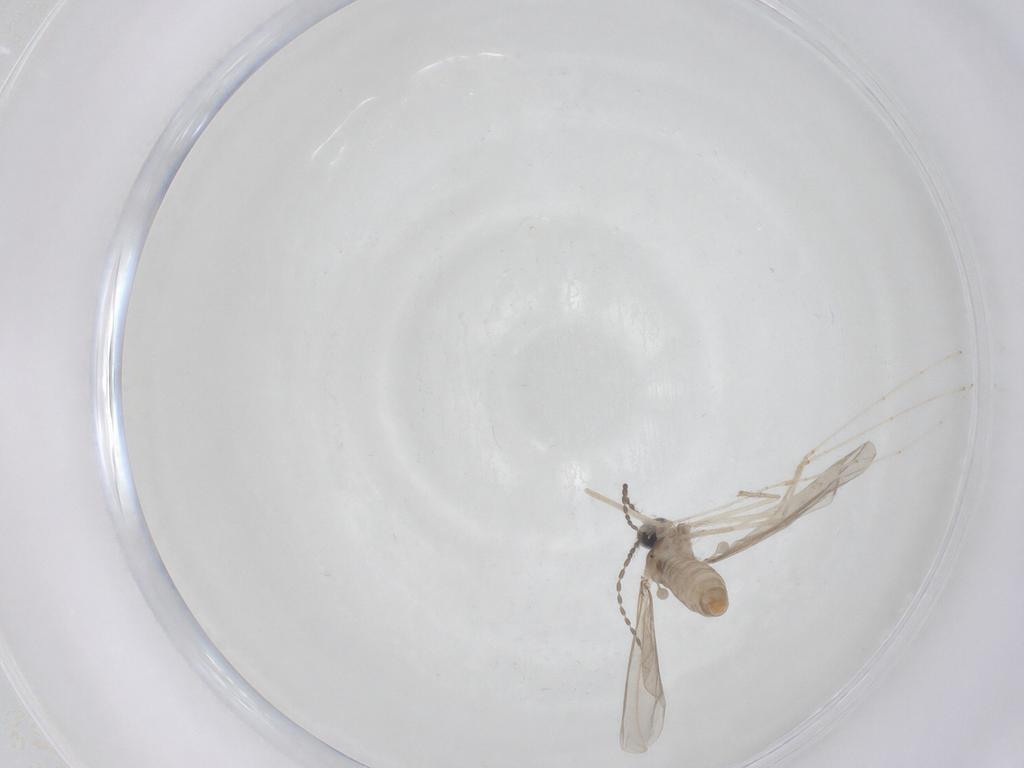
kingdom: Animalia
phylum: Arthropoda
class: Insecta
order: Diptera
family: Cecidomyiidae
